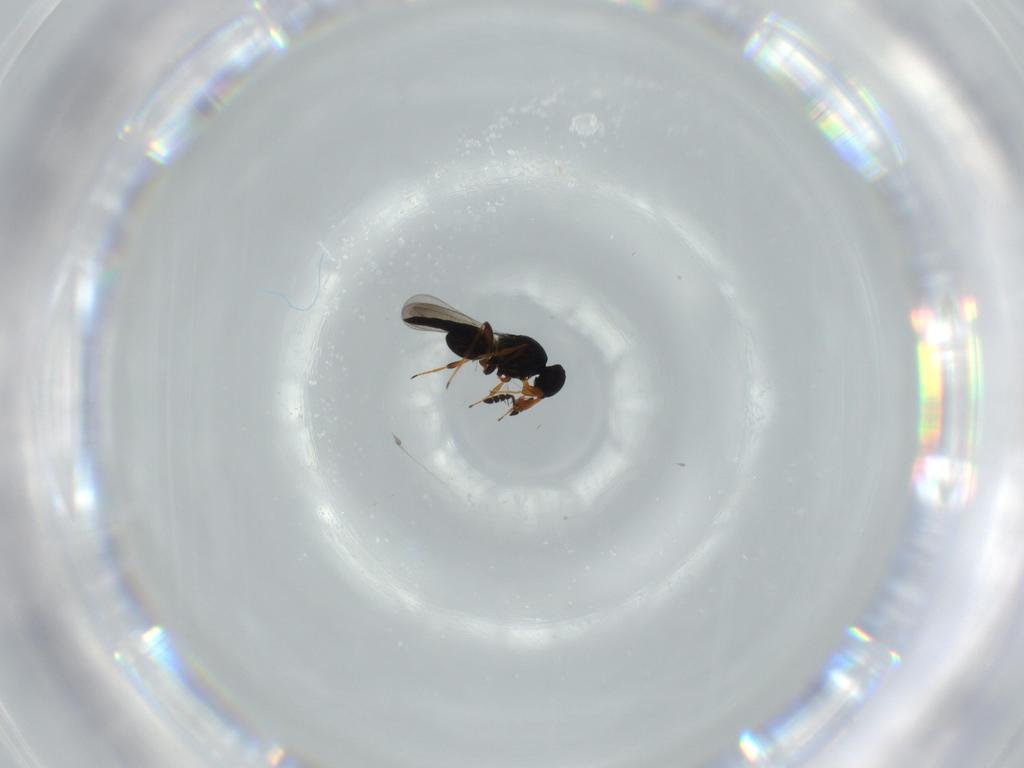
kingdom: Animalia
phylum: Arthropoda
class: Insecta
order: Hymenoptera
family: Platygastridae
